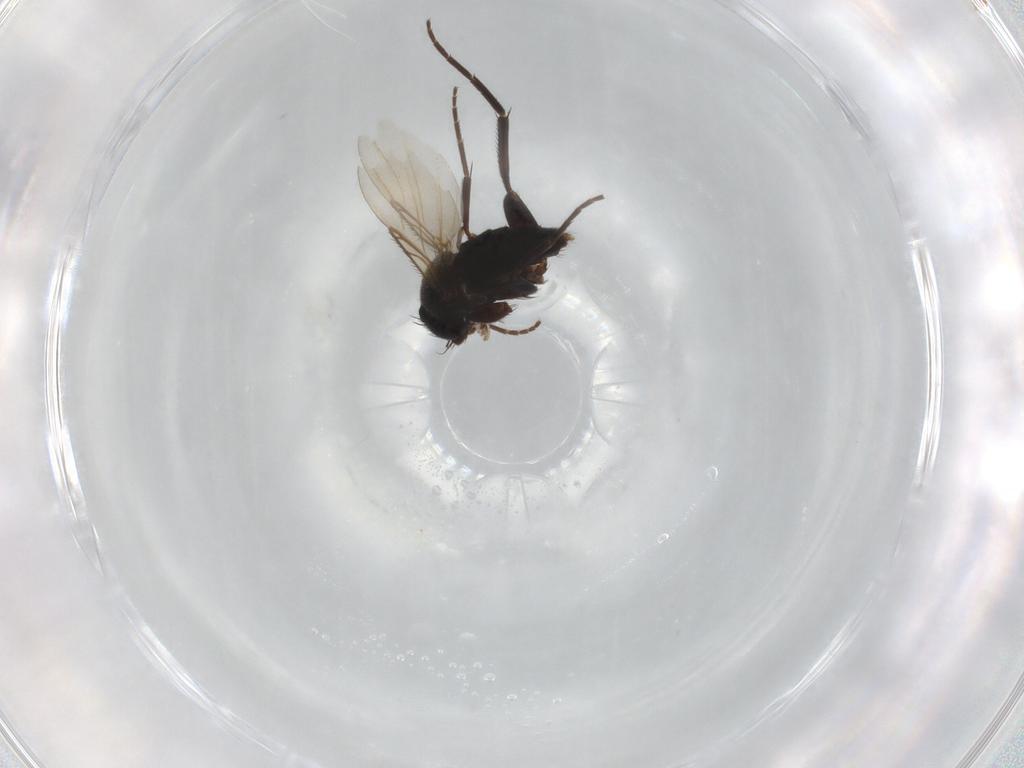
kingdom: Animalia
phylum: Arthropoda
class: Insecta
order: Diptera
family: Phoridae
